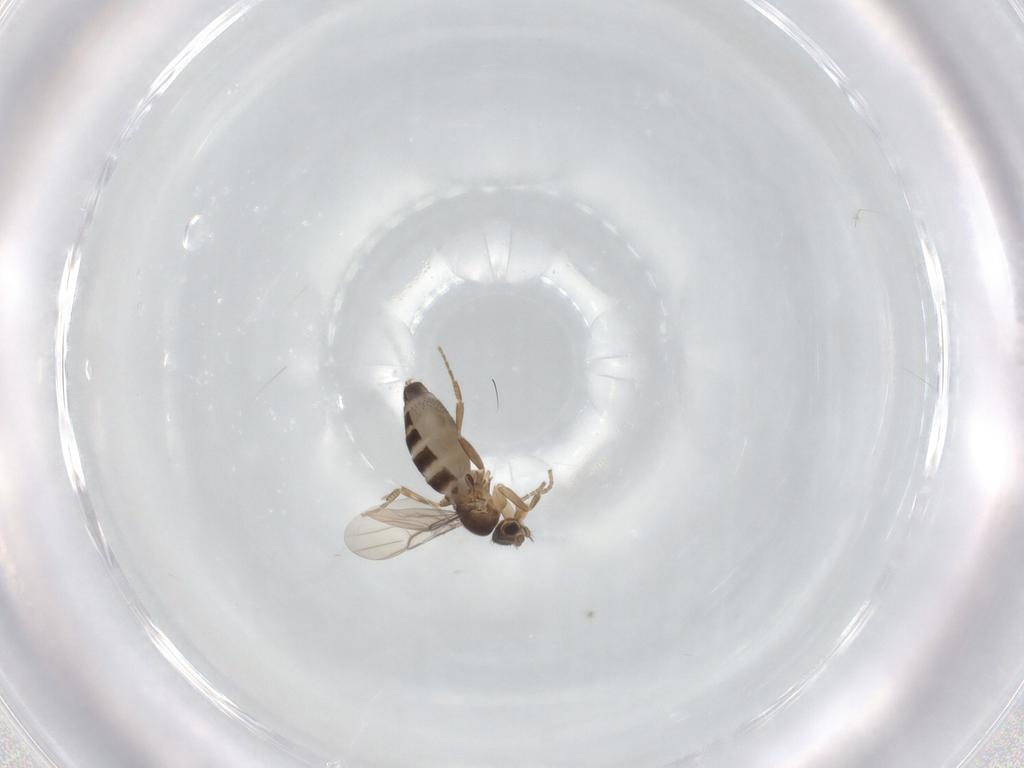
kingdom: Animalia
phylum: Arthropoda
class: Insecta
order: Diptera
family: Phoridae
